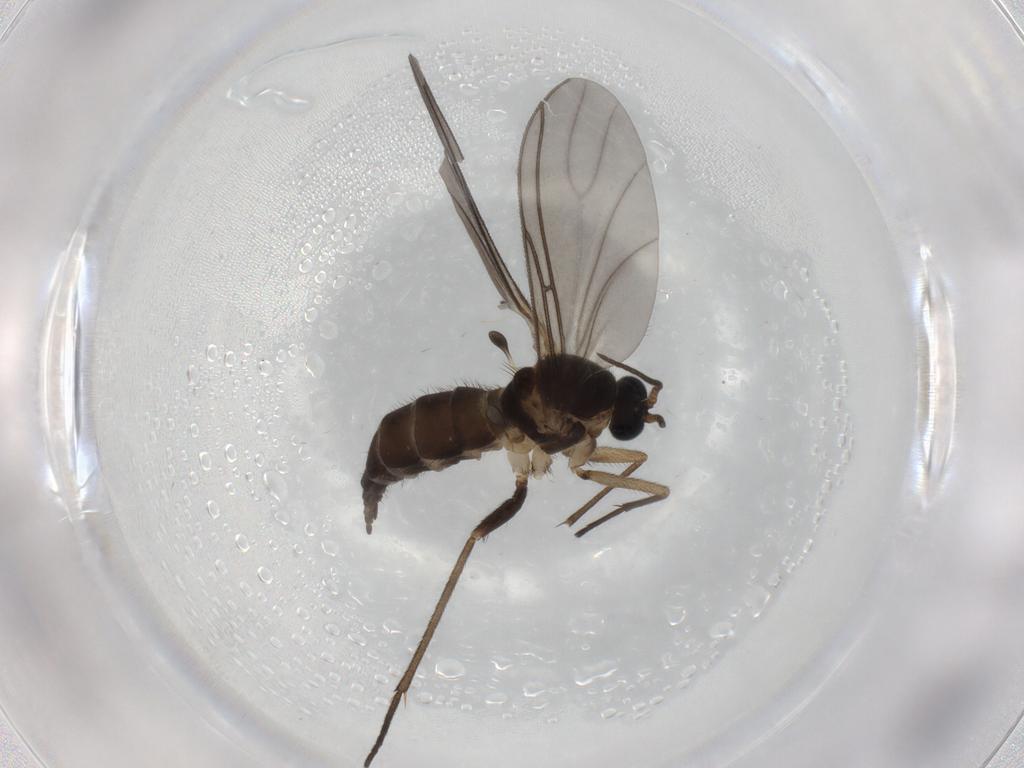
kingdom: Animalia
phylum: Arthropoda
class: Insecta
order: Diptera
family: Sciaridae
